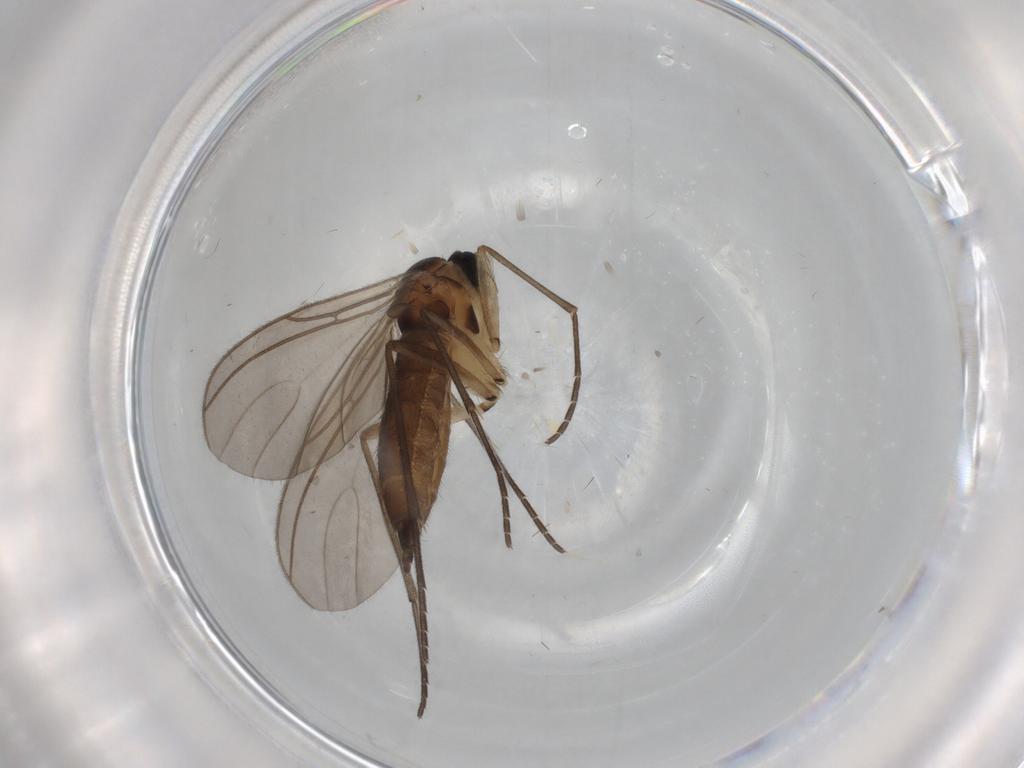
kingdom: Animalia
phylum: Arthropoda
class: Insecta
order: Diptera
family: Sciaridae
